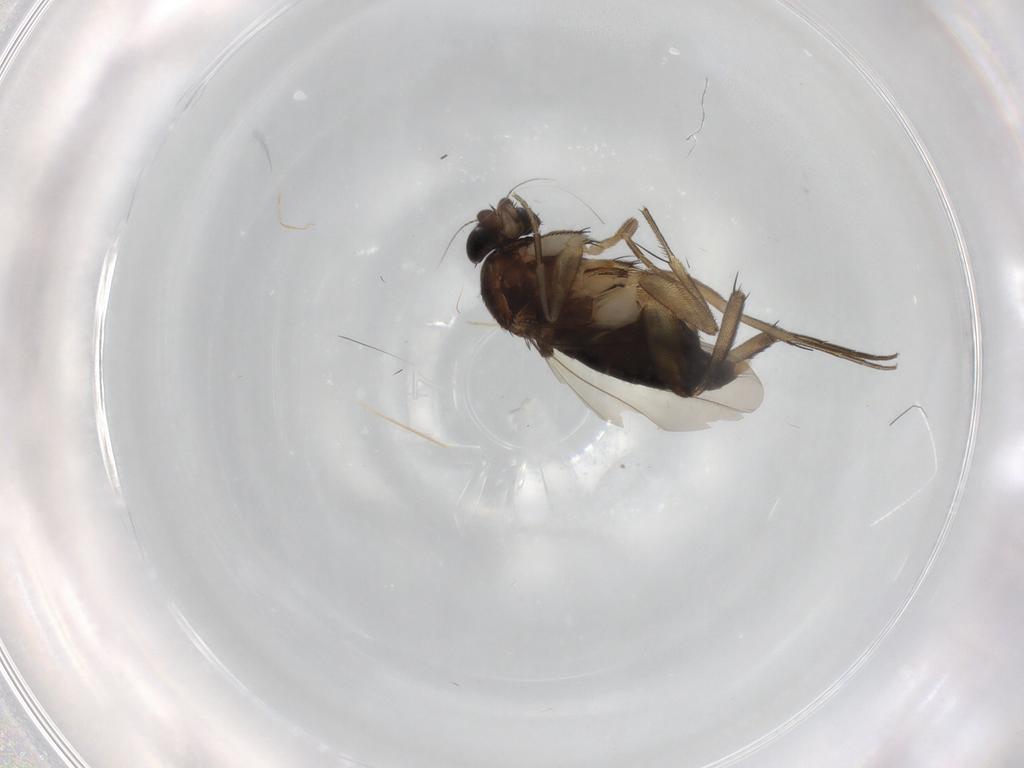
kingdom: Animalia
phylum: Arthropoda
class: Insecta
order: Diptera
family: Phoridae
